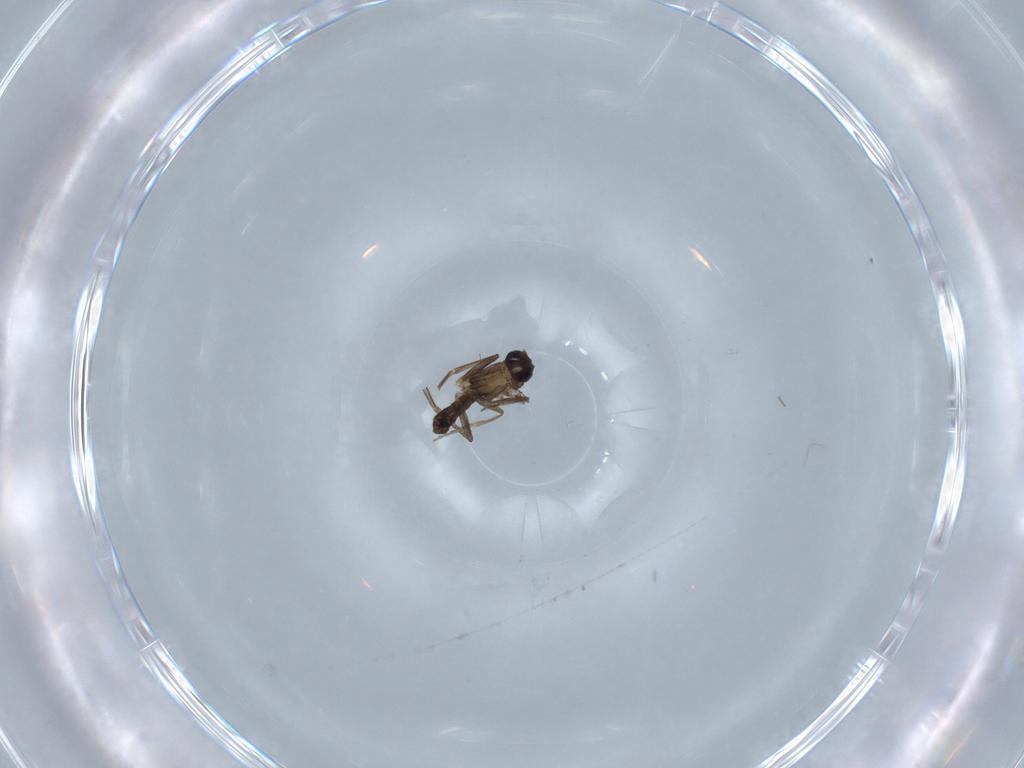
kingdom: Animalia
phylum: Arthropoda
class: Insecta
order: Diptera
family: Phoridae
